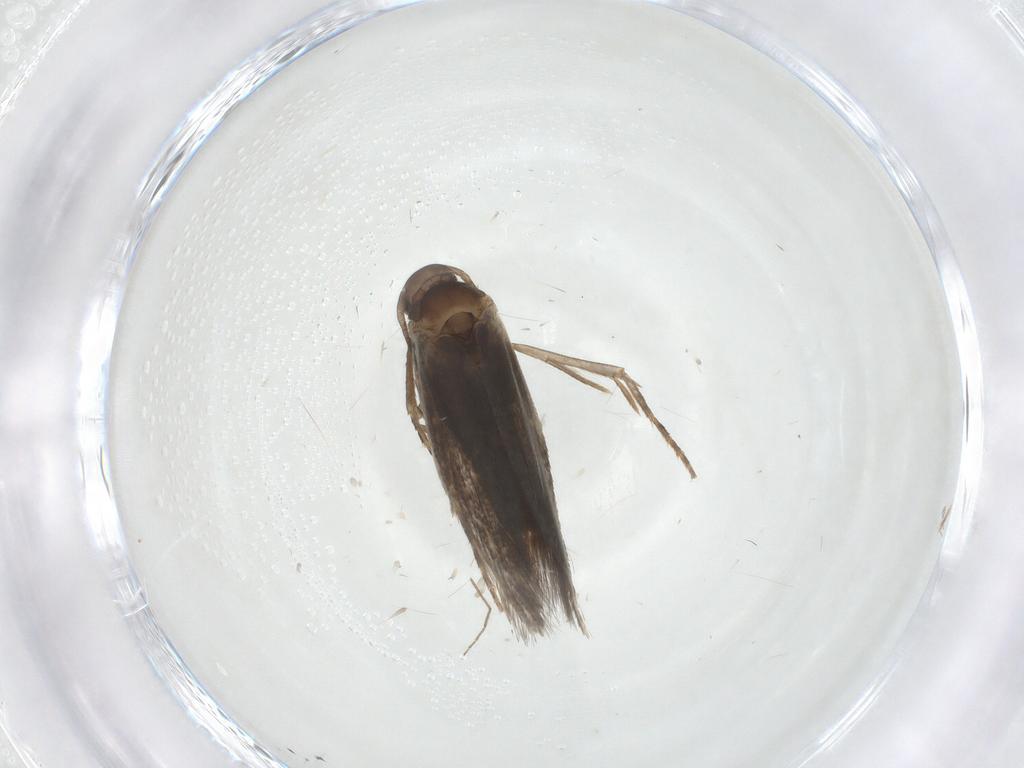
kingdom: Animalia
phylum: Arthropoda
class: Insecta
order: Lepidoptera
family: Elachistidae
